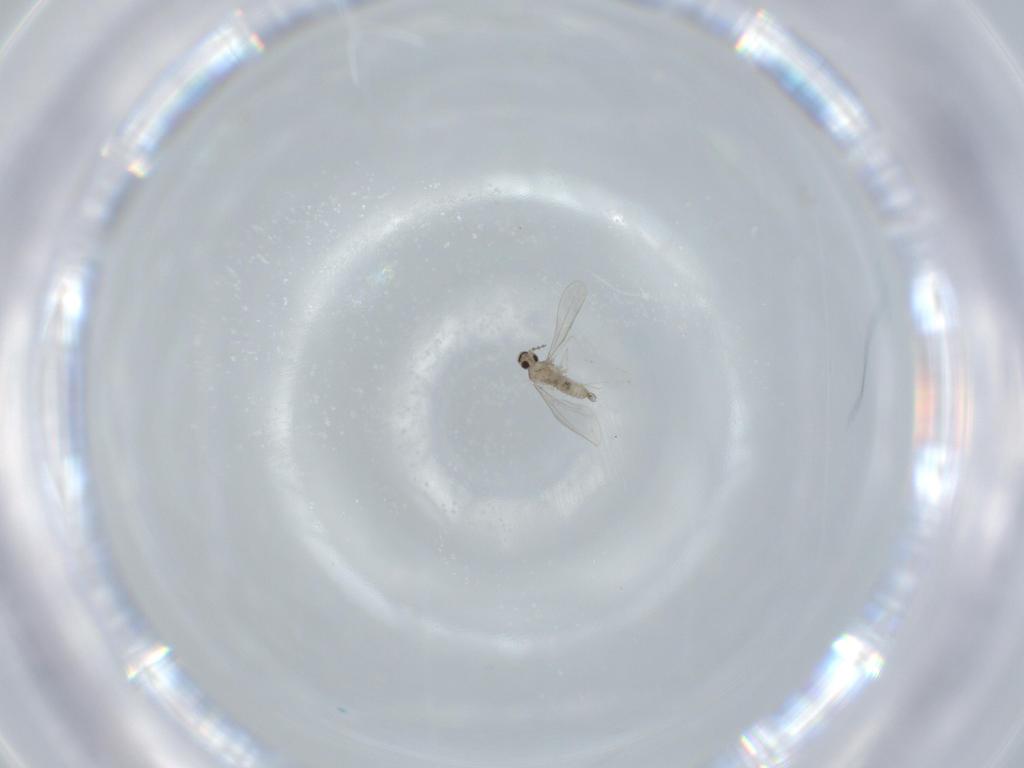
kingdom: Animalia
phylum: Arthropoda
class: Insecta
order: Diptera
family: Cecidomyiidae
